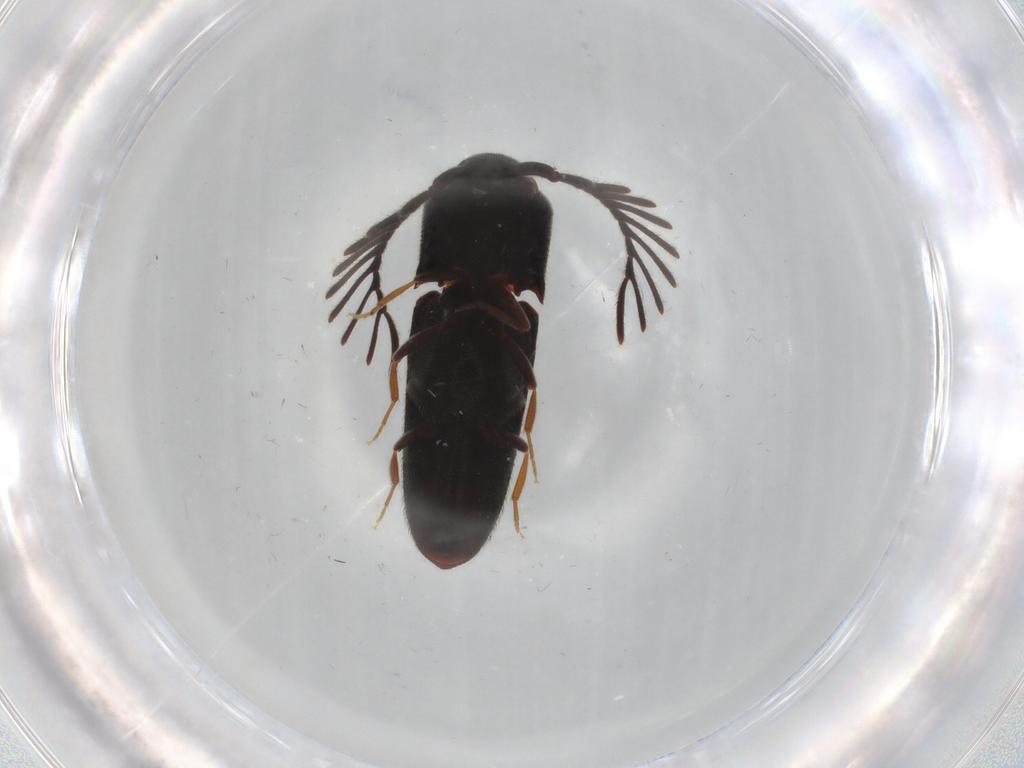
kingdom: Animalia
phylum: Arthropoda
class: Insecta
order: Coleoptera
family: Eucnemidae
